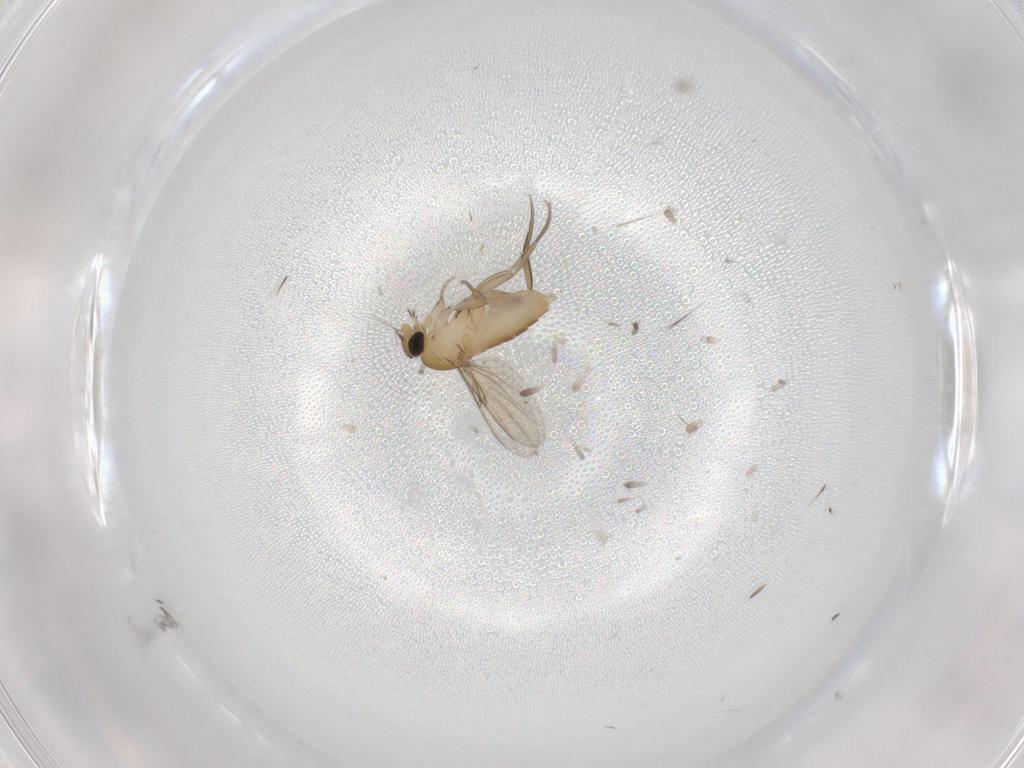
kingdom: Animalia
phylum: Arthropoda
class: Insecta
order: Diptera
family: Phoridae
